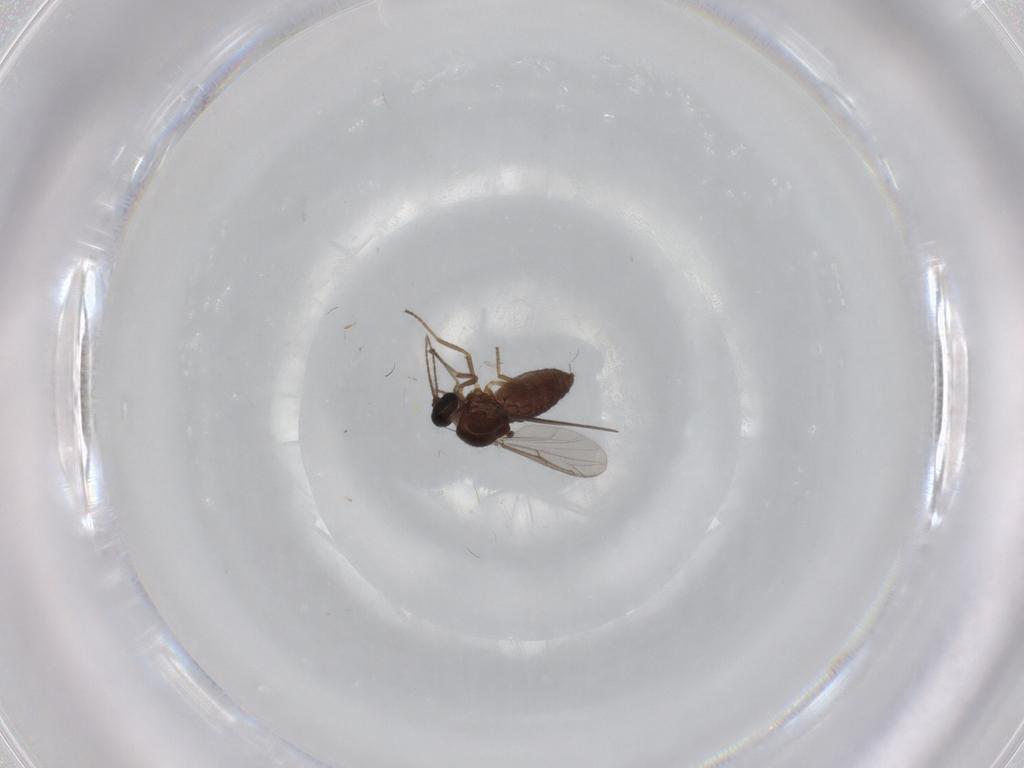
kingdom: Animalia
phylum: Arthropoda
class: Insecta
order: Diptera
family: Ceratopogonidae
